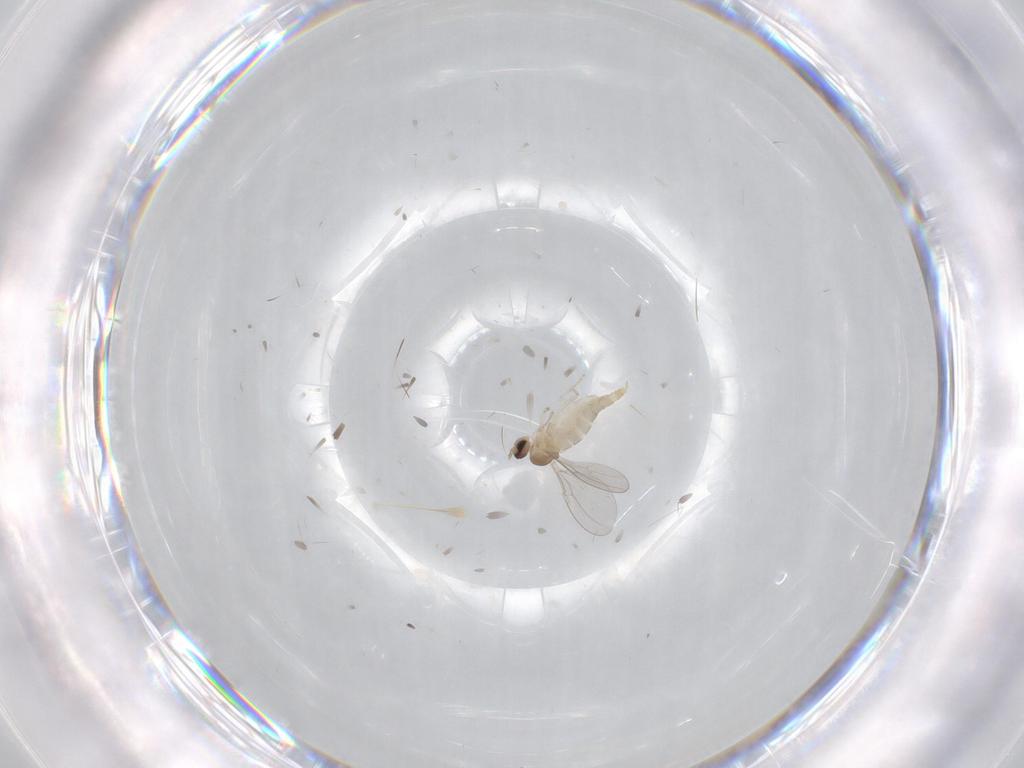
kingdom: Animalia
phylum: Arthropoda
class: Insecta
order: Diptera
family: Cecidomyiidae
